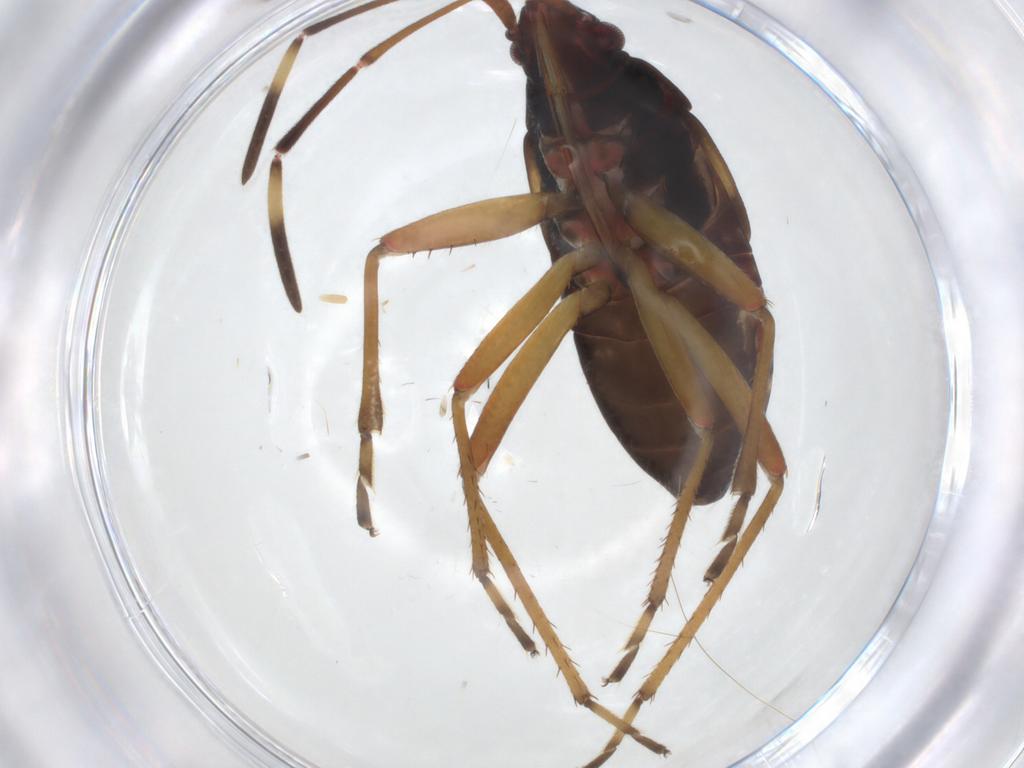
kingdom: Animalia
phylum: Arthropoda
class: Insecta
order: Hemiptera
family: Rhyparochromidae
